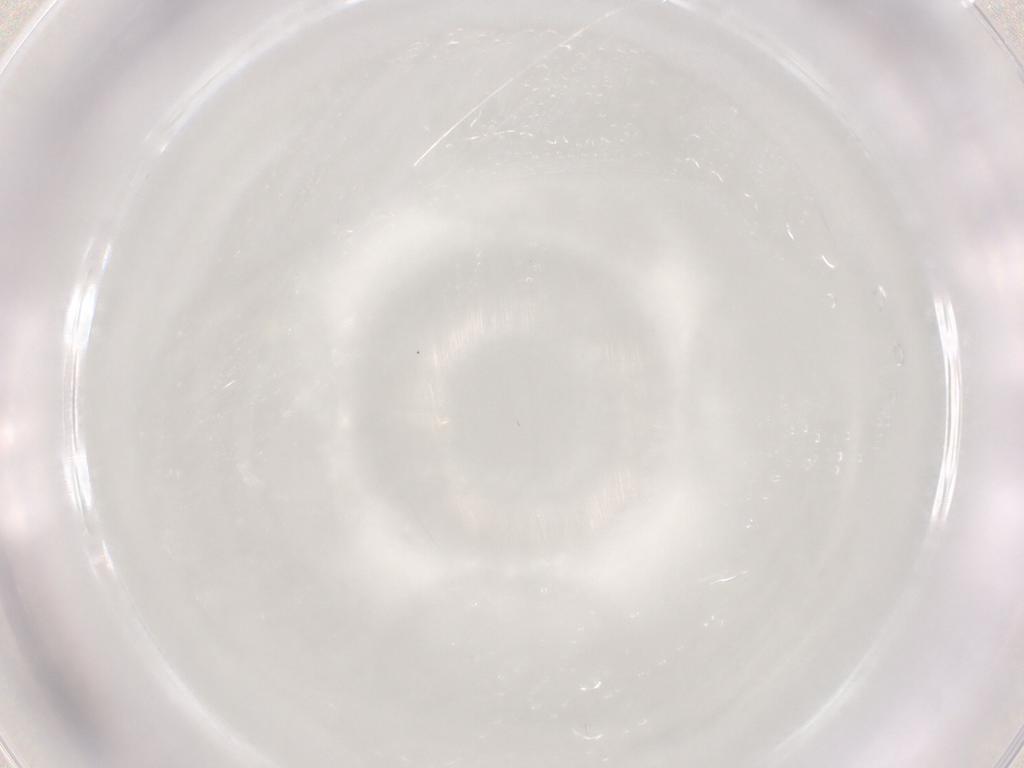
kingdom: Animalia
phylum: Arthropoda
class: Arachnida
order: Trombidiformes
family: Cunaxidae
